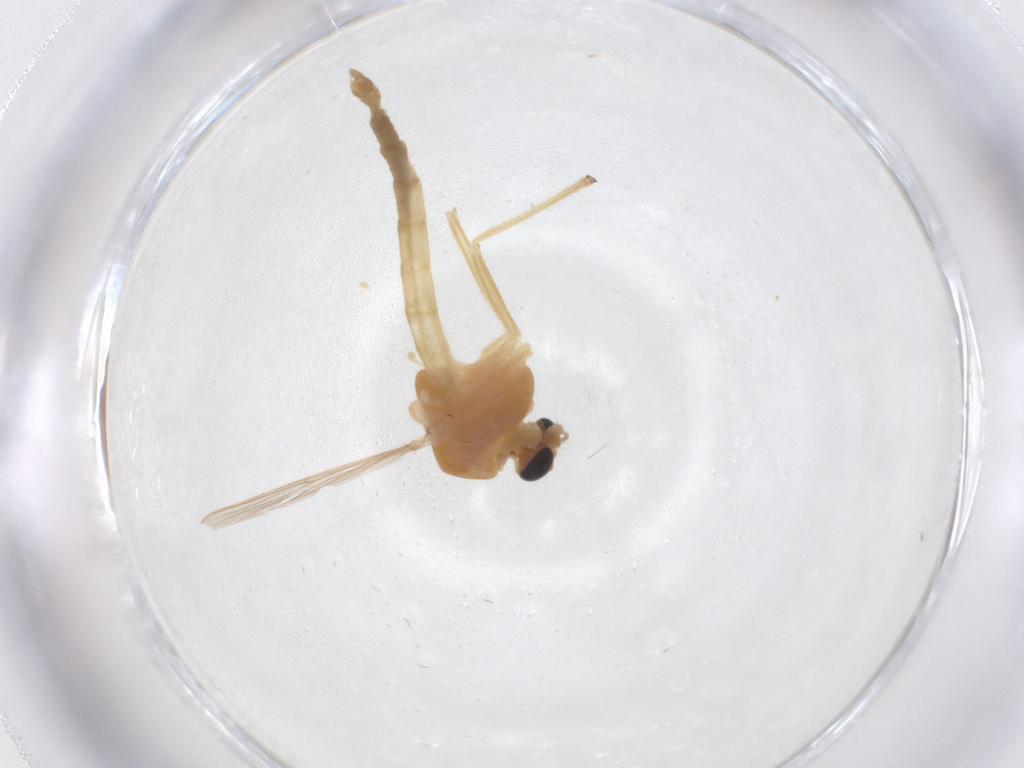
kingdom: Animalia
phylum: Arthropoda
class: Insecta
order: Diptera
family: Chironomidae
